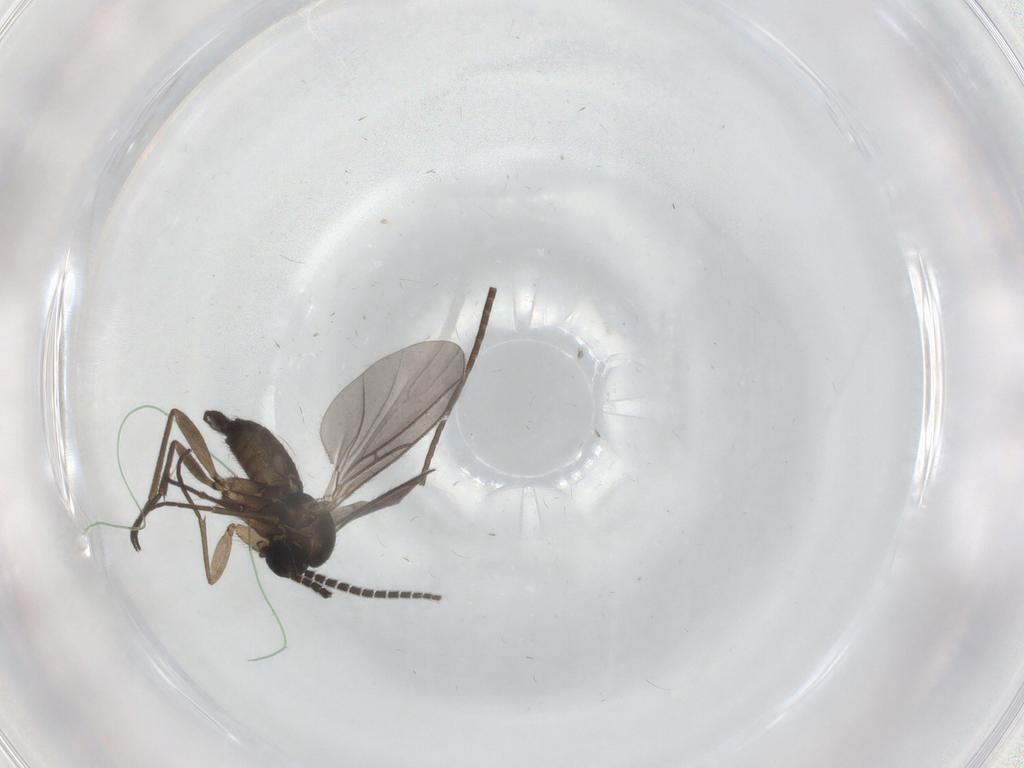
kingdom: Animalia
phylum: Arthropoda
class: Insecta
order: Diptera
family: Sciaridae
